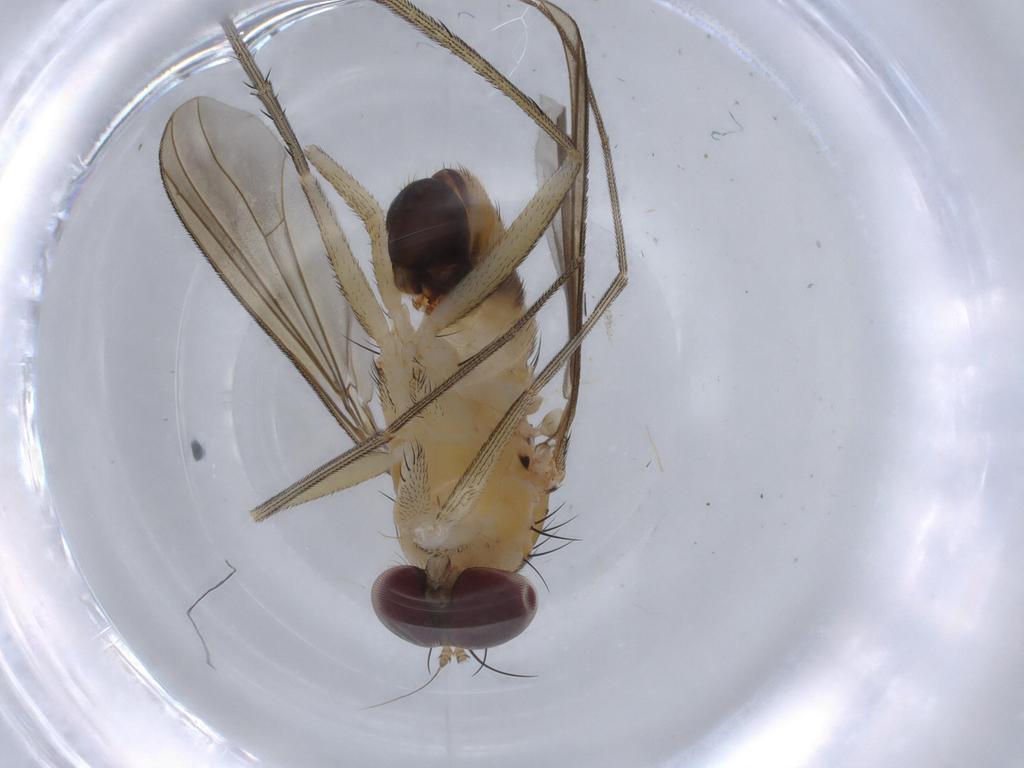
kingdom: Animalia
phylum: Arthropoda
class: Insecta
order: Diptera
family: Dolichopodidae
